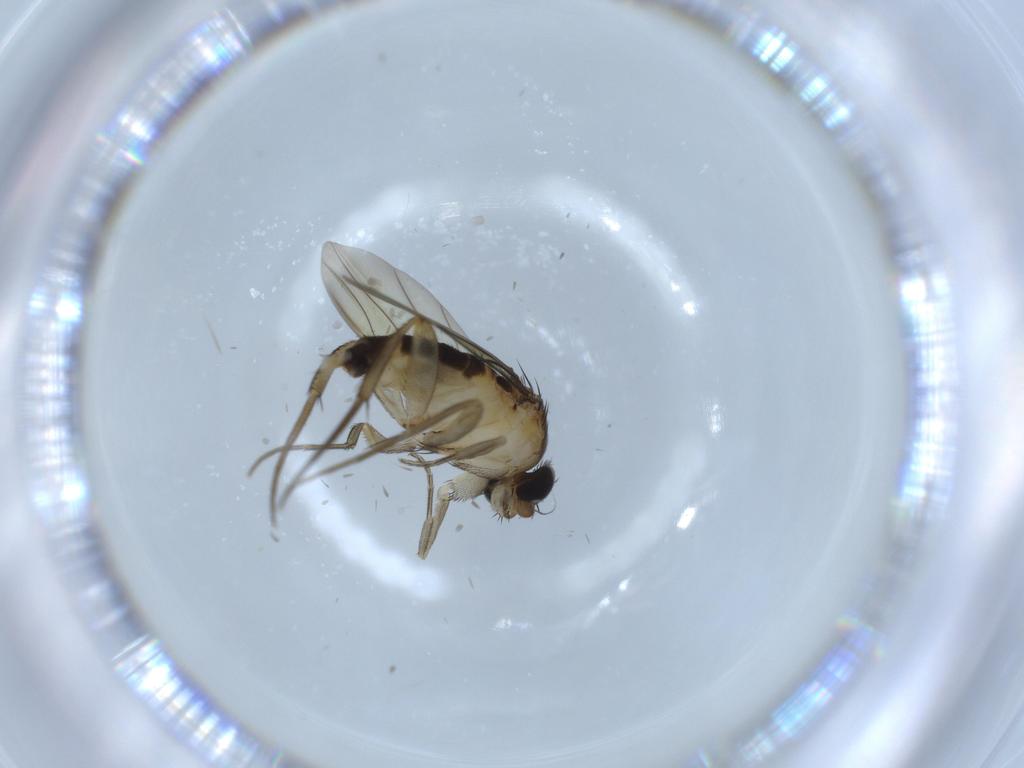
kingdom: Animalia
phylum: Arthropoda
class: Insecta
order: Diptera
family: Phoridae
